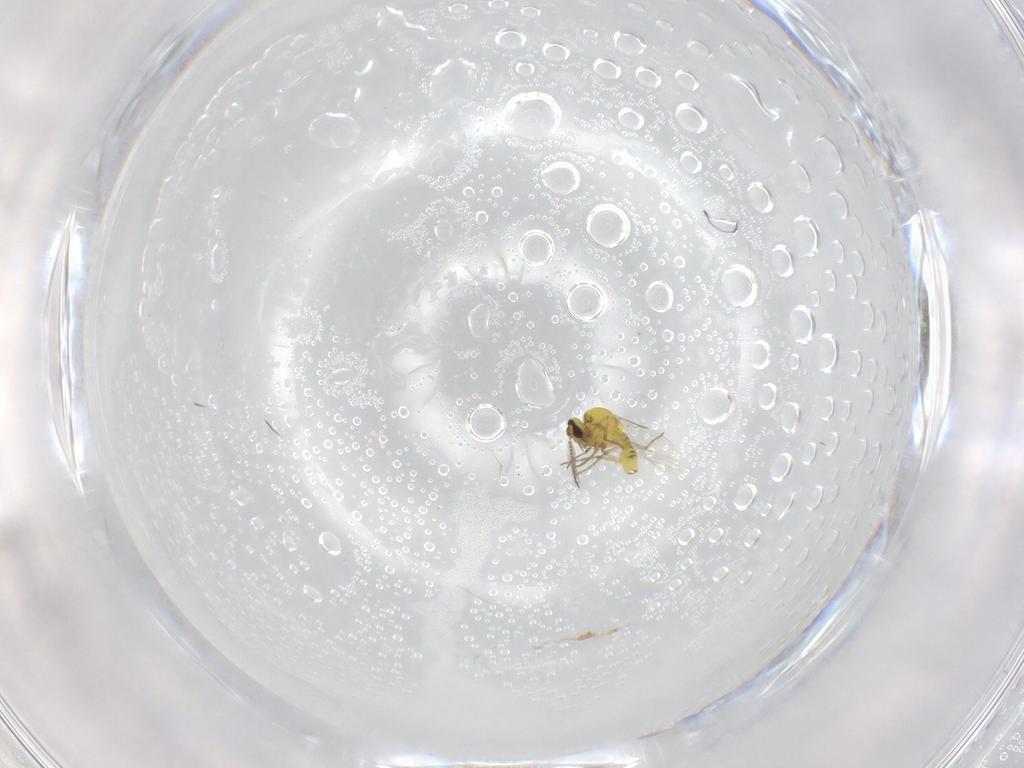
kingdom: Animalia
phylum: Arthropoda
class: Insecta
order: Diptera
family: Ceratopogonidae
